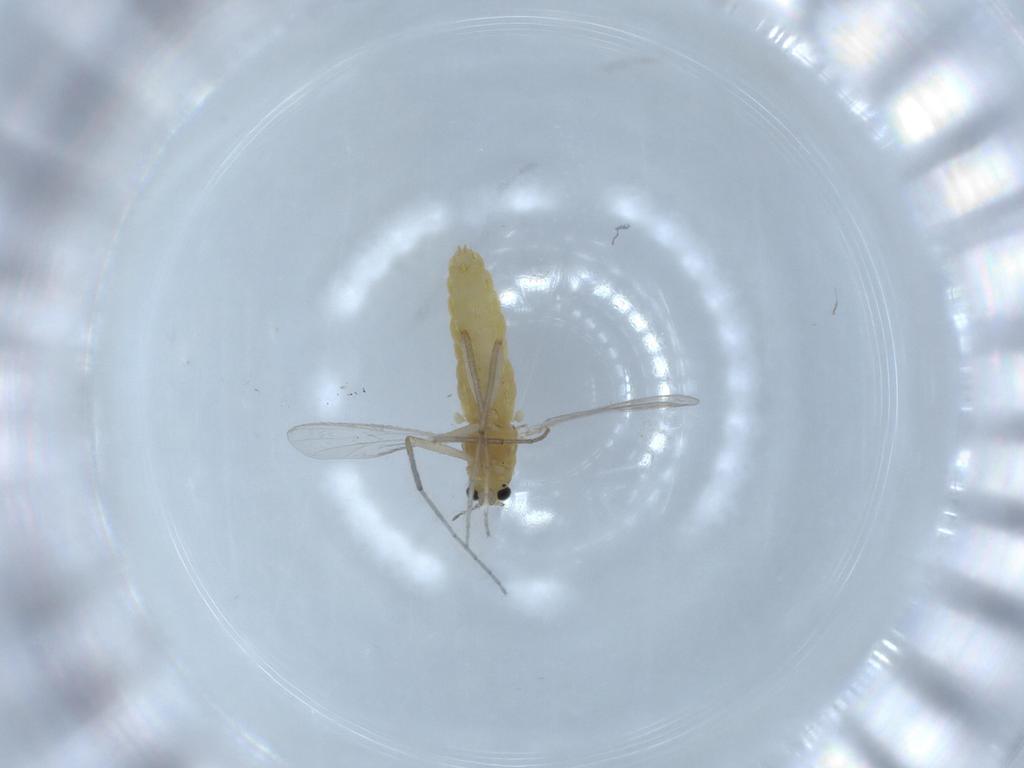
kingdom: Animalia
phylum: Arthropoda
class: Insecta
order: Diptera
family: Chironomidae
